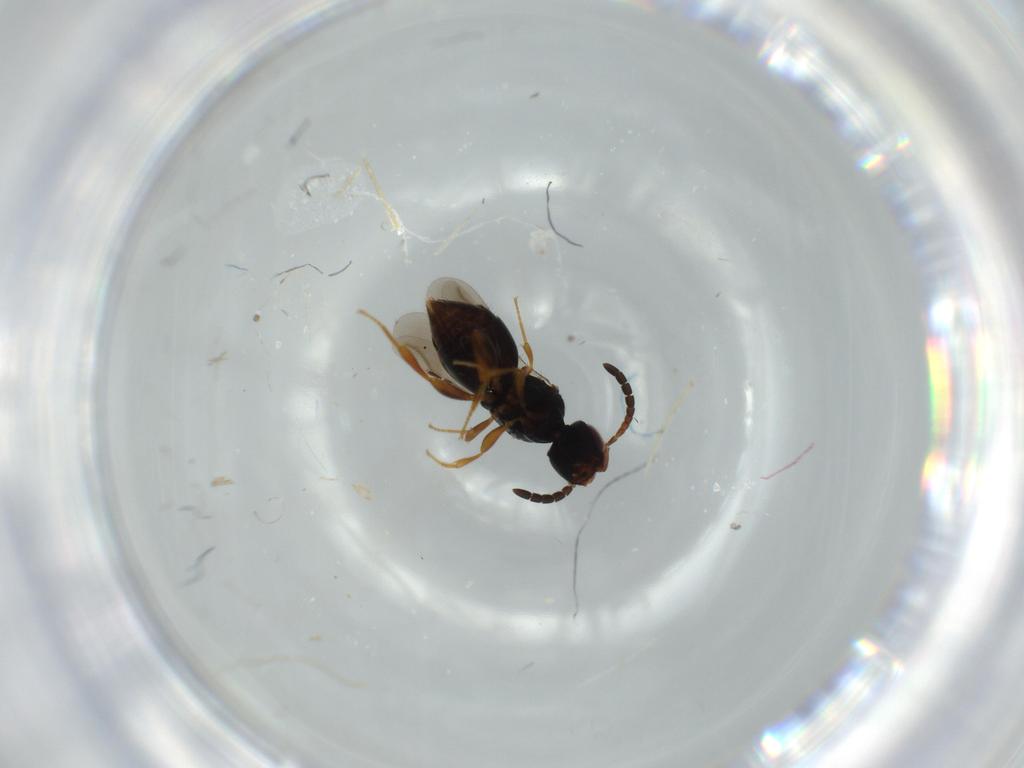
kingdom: Animalia
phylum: Arthropoda
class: Insecta
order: Hymenoptera
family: Ceraphronidae
